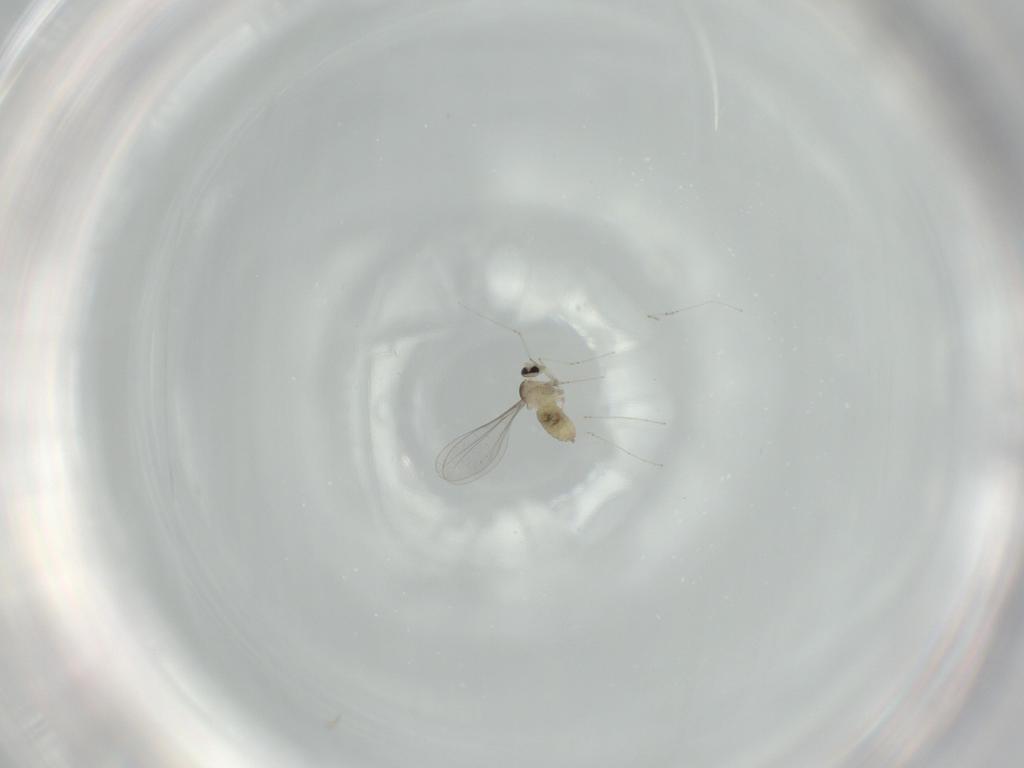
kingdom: Animalia
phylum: Arthropoda
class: Insecta
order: Diptera
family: Cecidomyiidae
